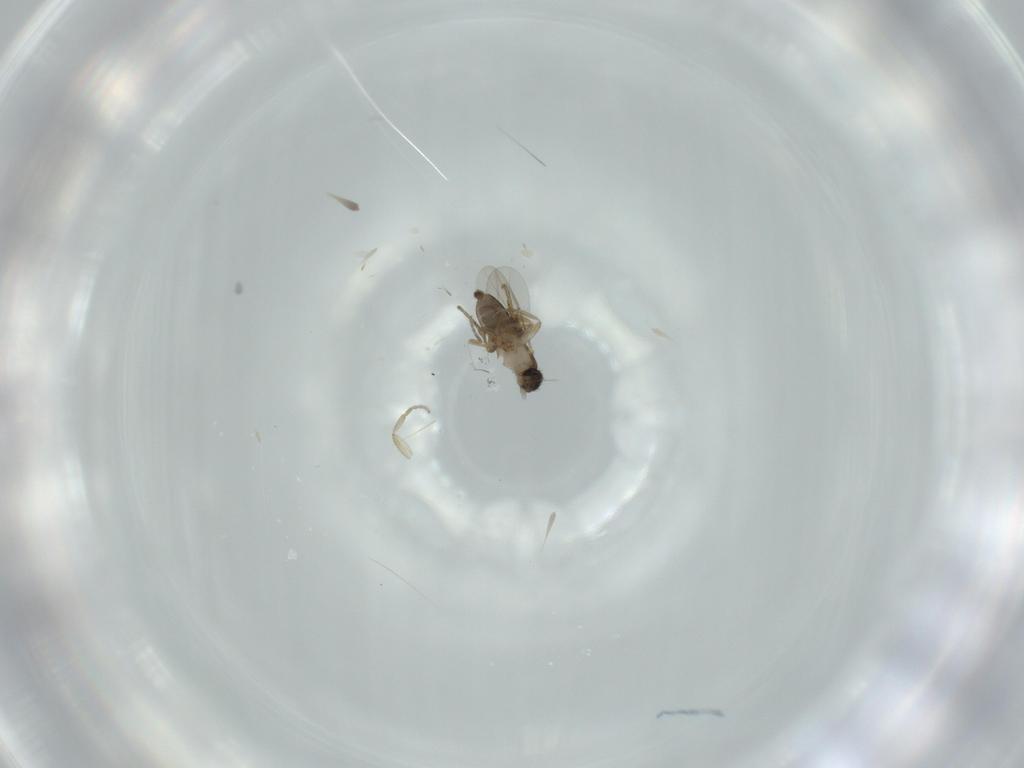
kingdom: Animalia
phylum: Arthropoda
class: Insecta
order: Diptera
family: Phoridae
